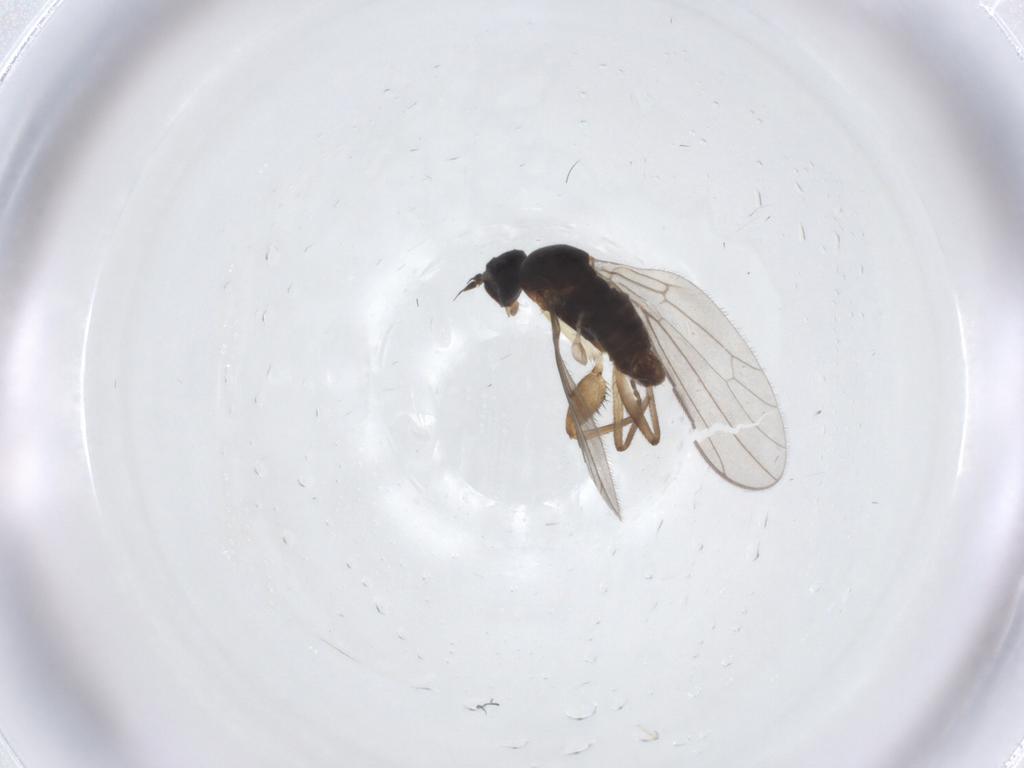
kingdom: Animalia
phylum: Arthropoda
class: Insecta
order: Diptera
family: Empididae
